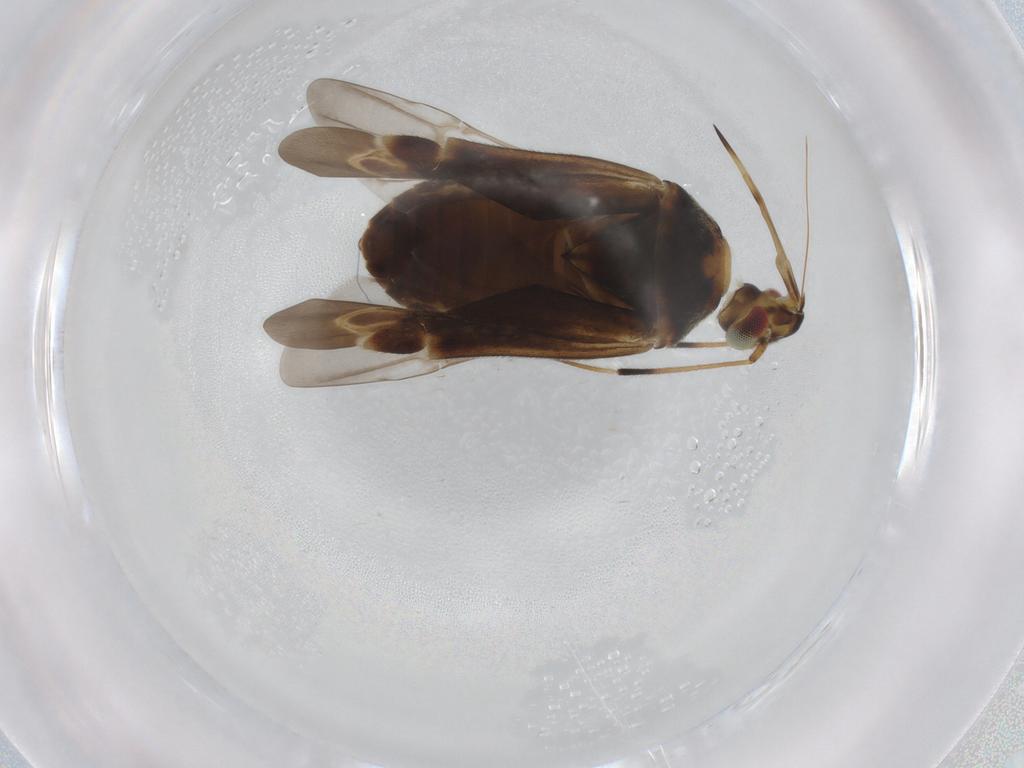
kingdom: Animalia
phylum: Arthropoda
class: Insecta
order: Hemiptera
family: Miridae
